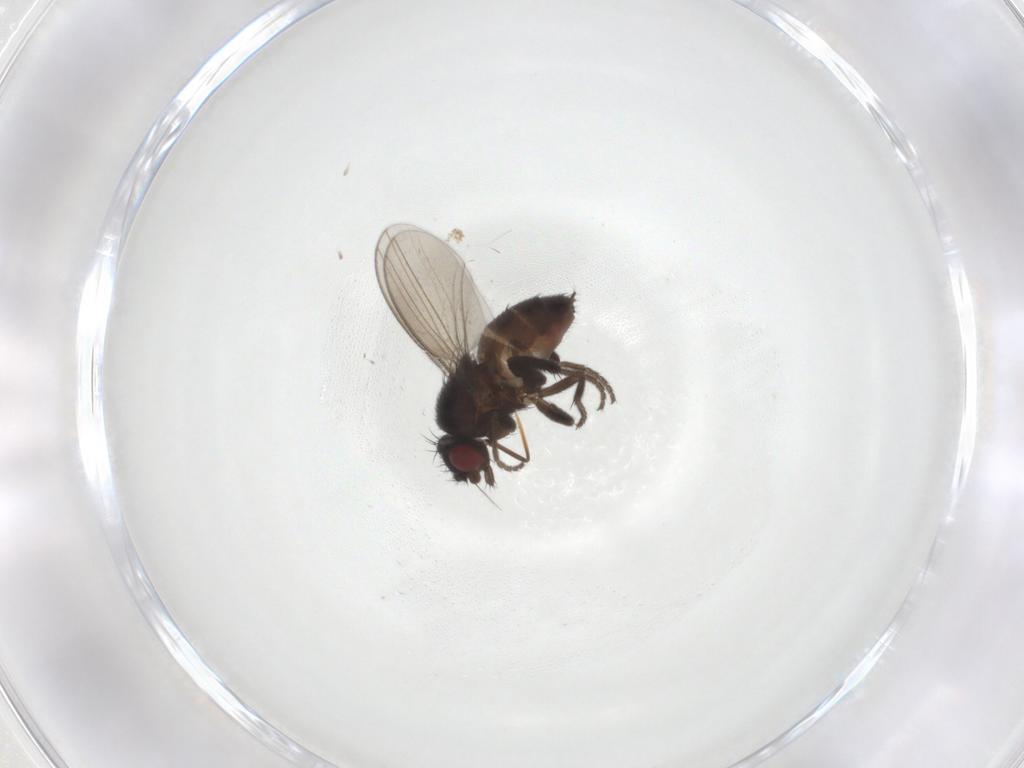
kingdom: Animalia
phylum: Arthropoda
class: Insecta
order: Diptera
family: Milichiidae
